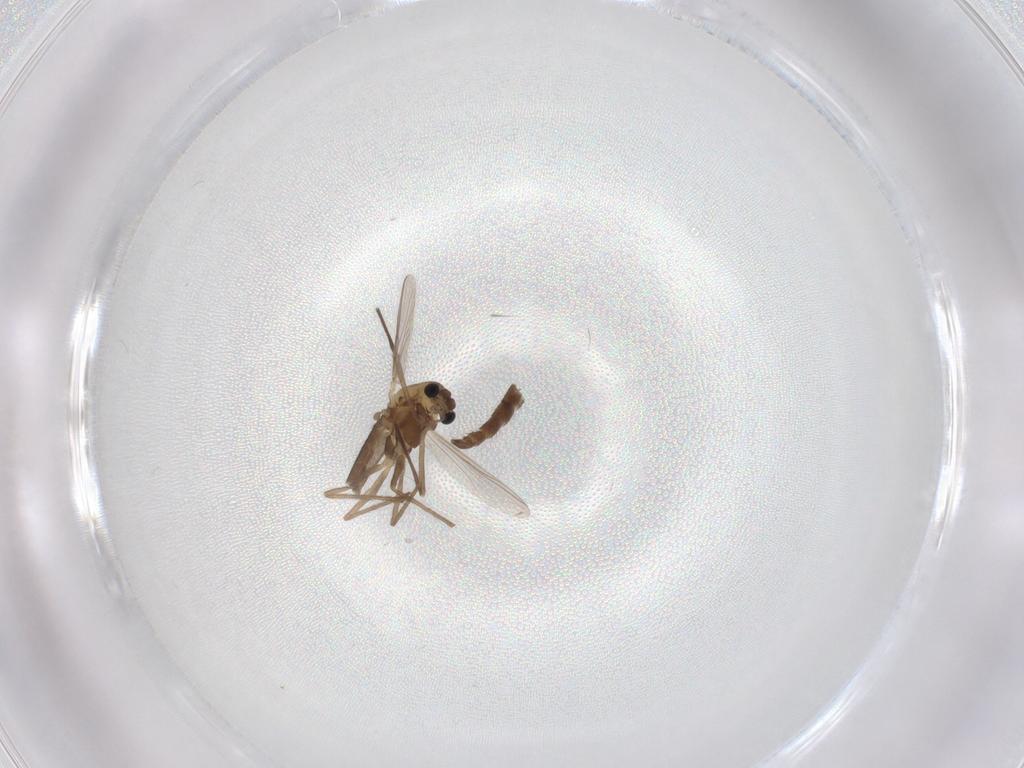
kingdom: Animalia
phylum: Arthropoda
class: Insecta
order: Diptera
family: Chironomidae
